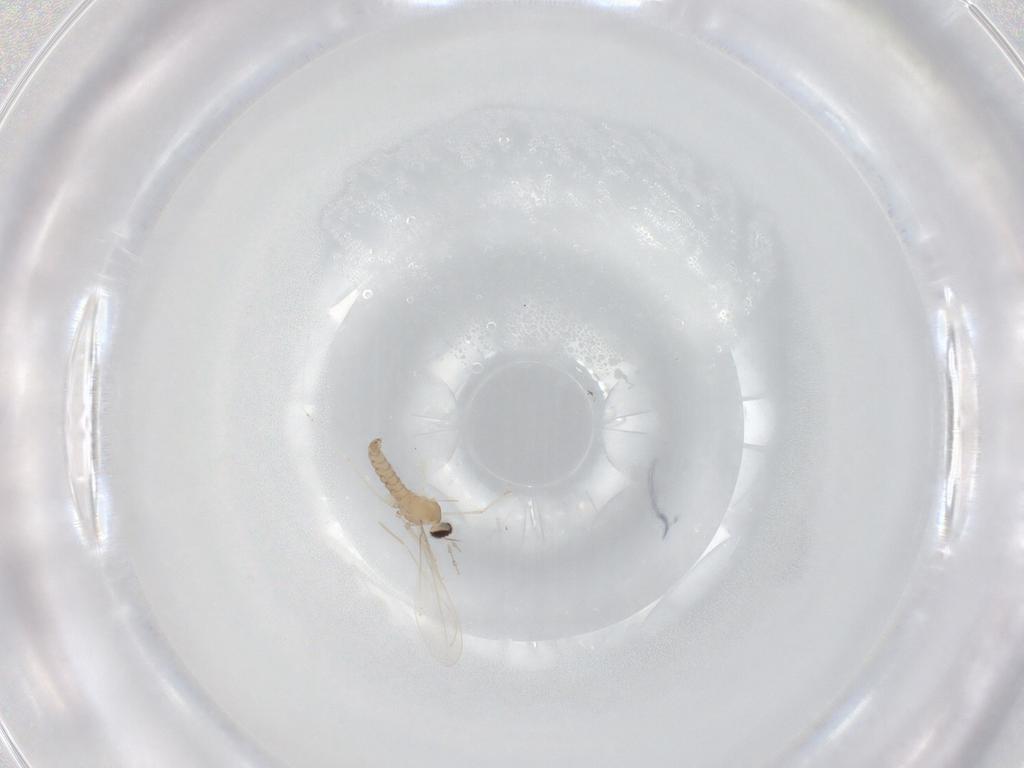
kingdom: Animalia
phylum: Arthropoda
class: Insecta
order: Diptera
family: Cecidomyiidae
